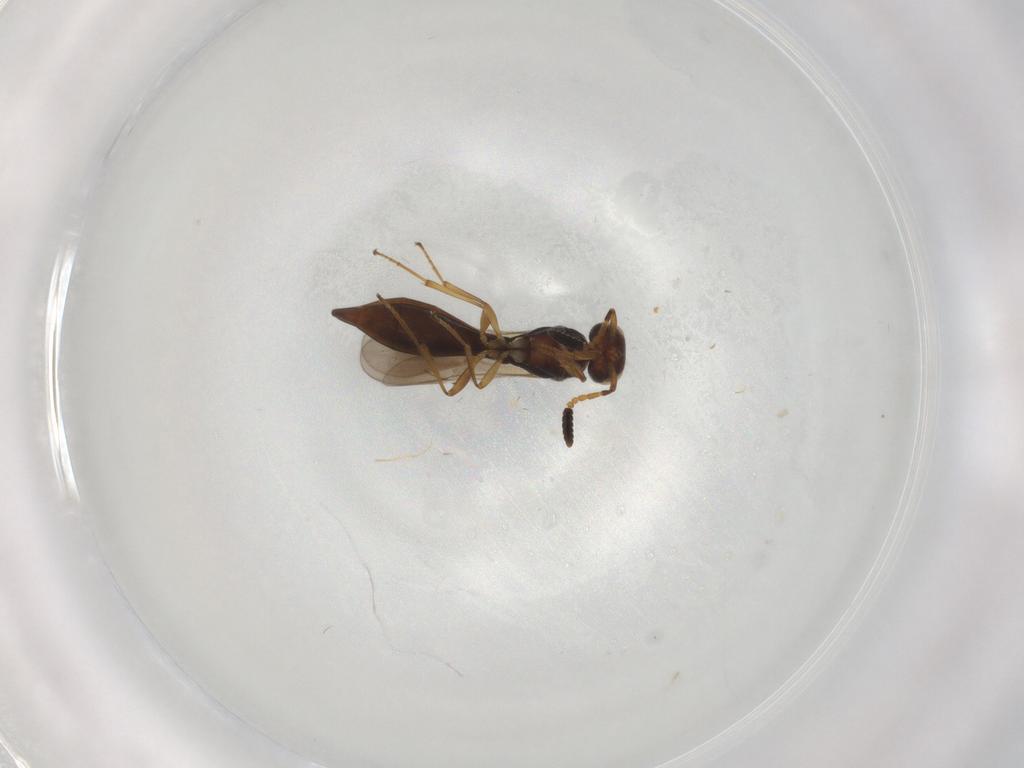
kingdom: Animalia
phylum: Arthropoda
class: Insecta
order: Hymenoptera
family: Scelionidae
